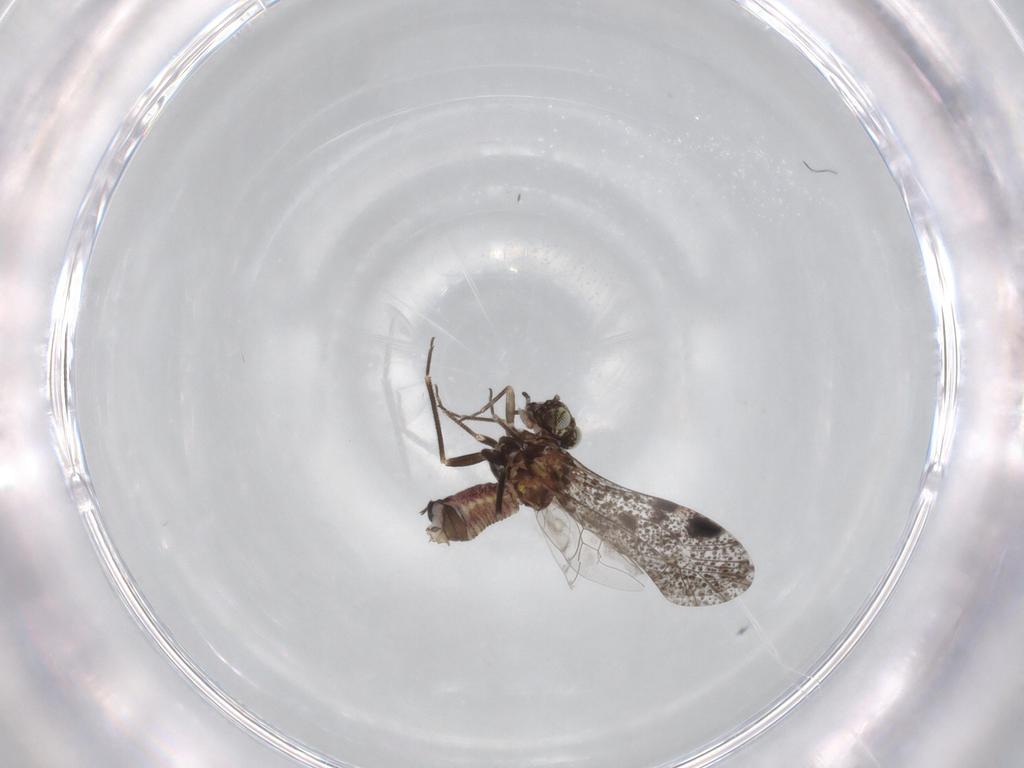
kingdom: Animalia
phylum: Arthropoda
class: Insecta
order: Psocodea
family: Psocidae
